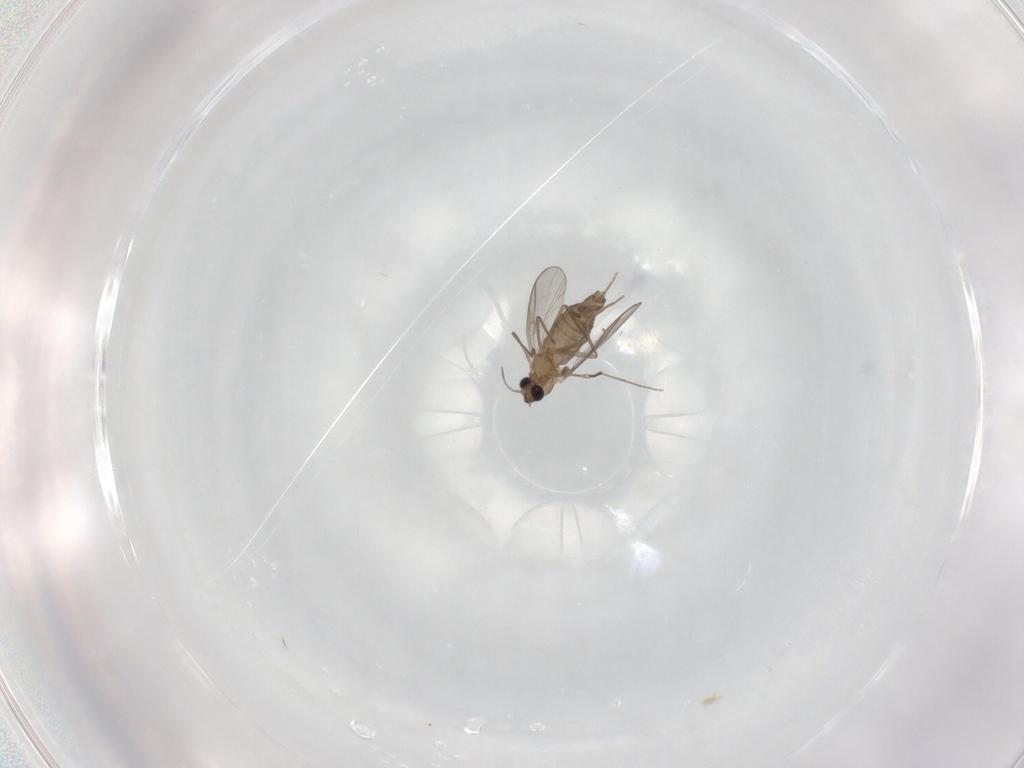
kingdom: Animalia
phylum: Arthropoda
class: Insecta
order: Diptera
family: Chironomidae
